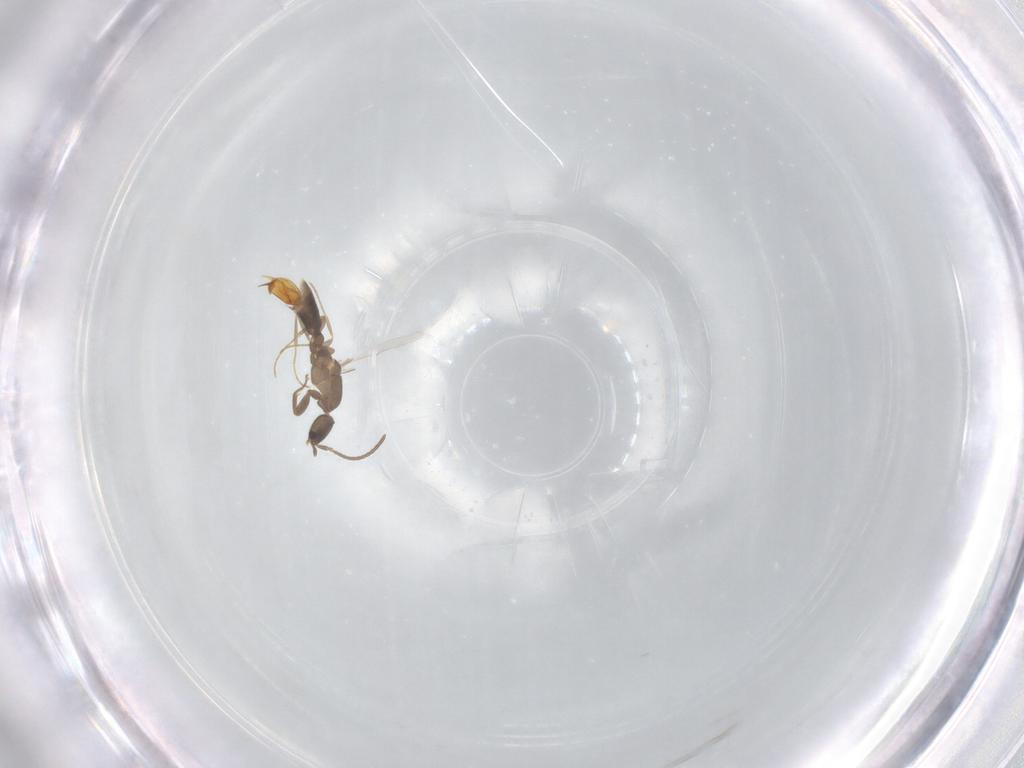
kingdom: Animalia
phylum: Arthropoda
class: Insecta
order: Hymenoptera
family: Formicidae
